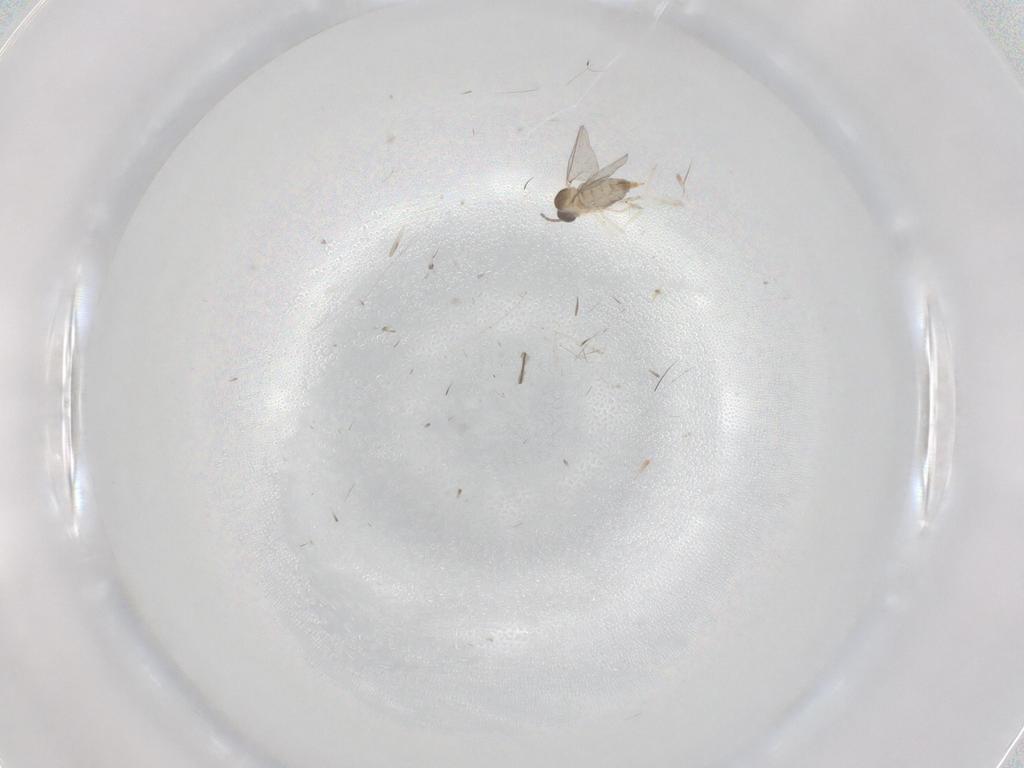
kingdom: Animalia
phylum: Arthropoda
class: Insecta
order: Diptera
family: Cecidomyiidae
